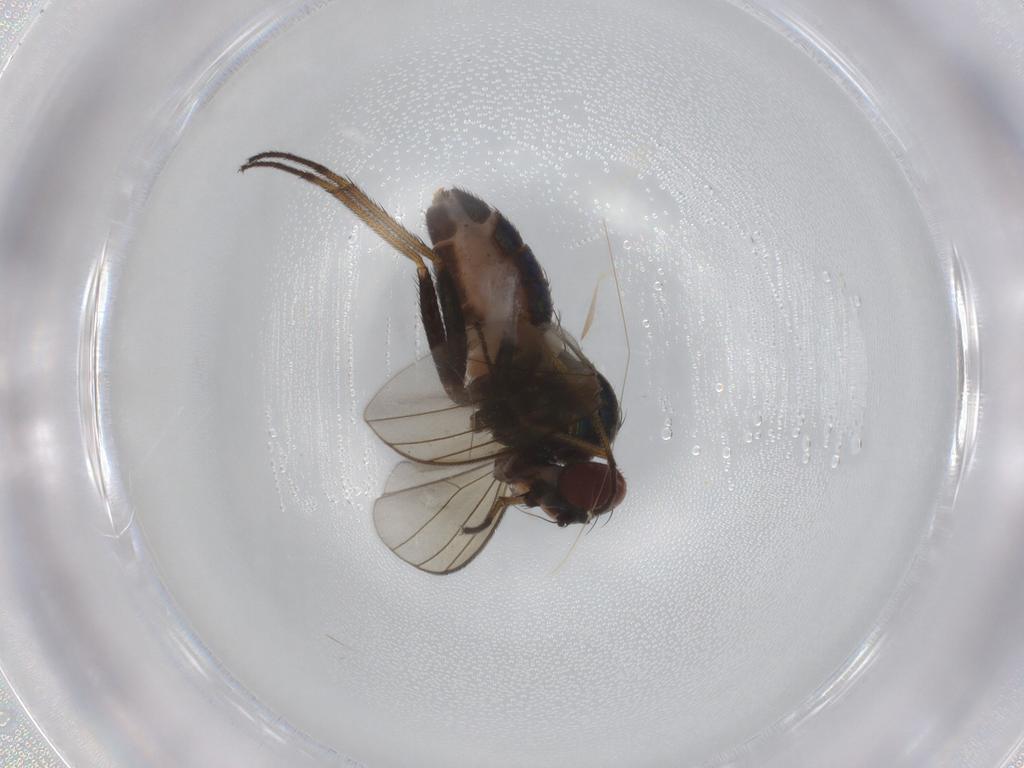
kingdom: Animalia
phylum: Arthropoda
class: Insecta
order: Diptera
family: Dolichopodidae
